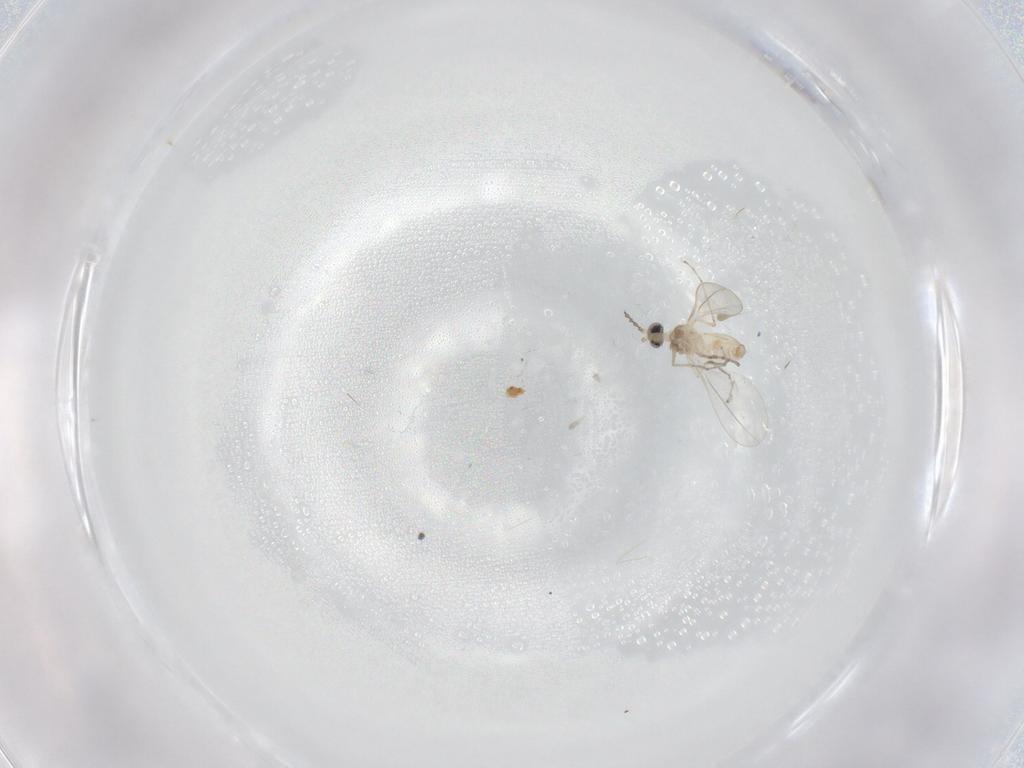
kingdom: Animalia
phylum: Arthropoda
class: Insecta
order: Diptera
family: Cecidomyiidae
